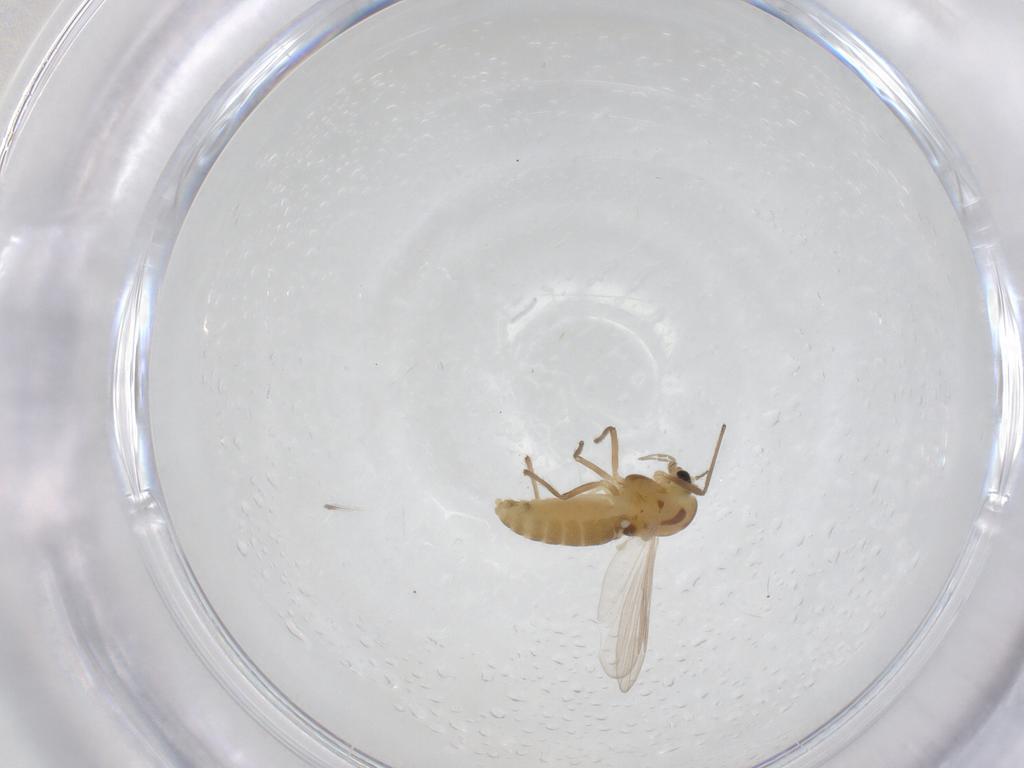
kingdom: Animalia
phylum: Arthropoda
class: Insecta
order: Diptera
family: Chironomidae
